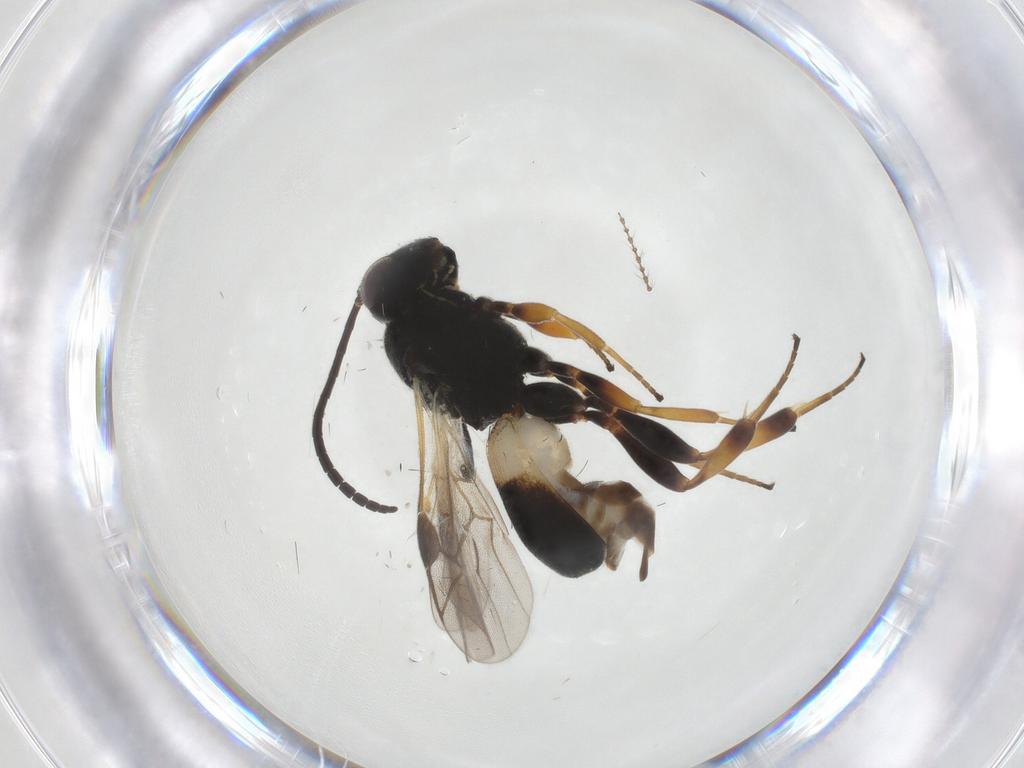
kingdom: Animalia
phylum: Arthropoda
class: Insecta
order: Hymenoptera
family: Braconidae
